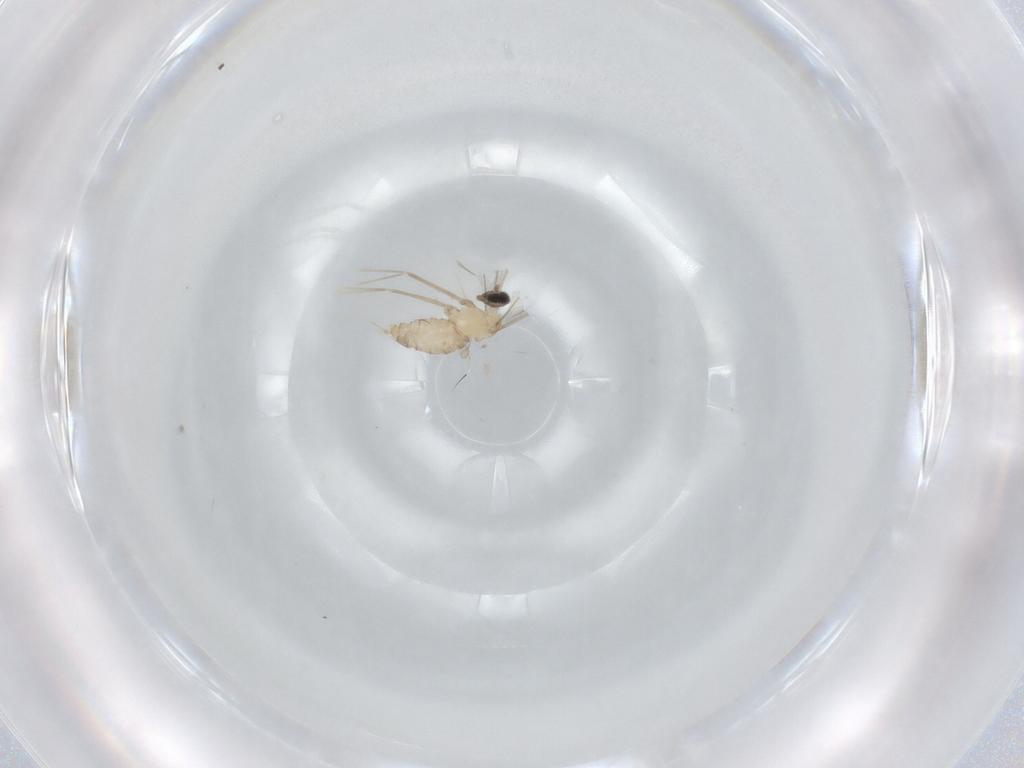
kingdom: Animalia
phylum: Arthropoda
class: Insecta
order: Diptera
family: Cecidomyiidae
